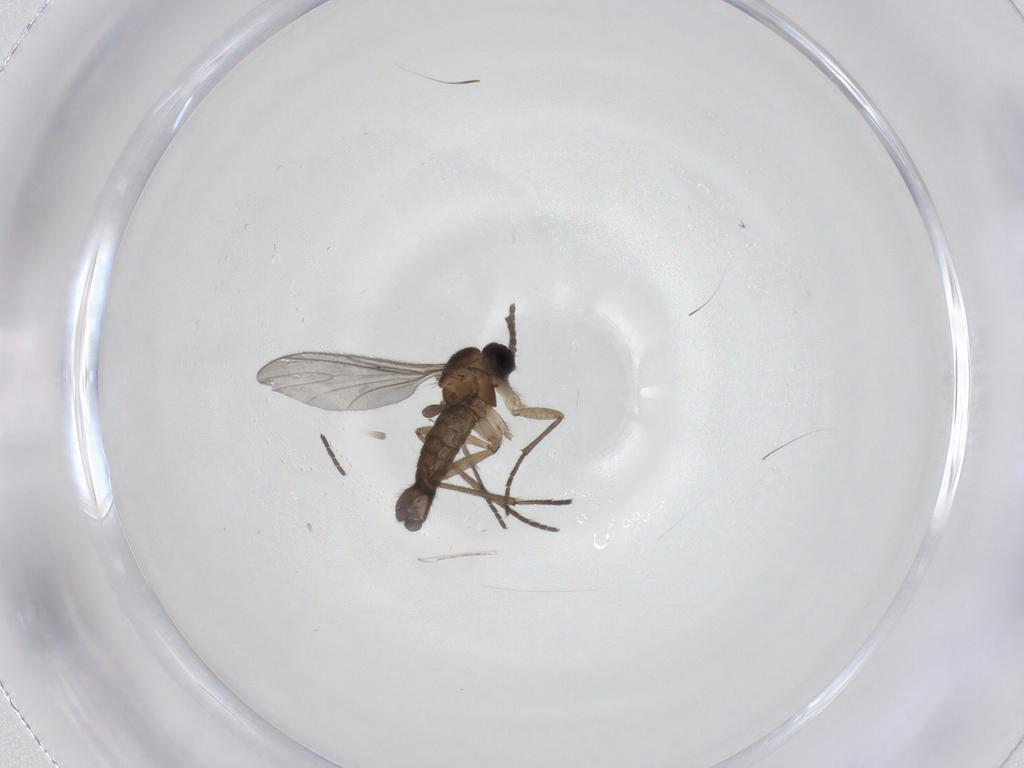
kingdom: Animalia
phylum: Arthropoda
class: Insecta
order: Diptera
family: Sciaridae
